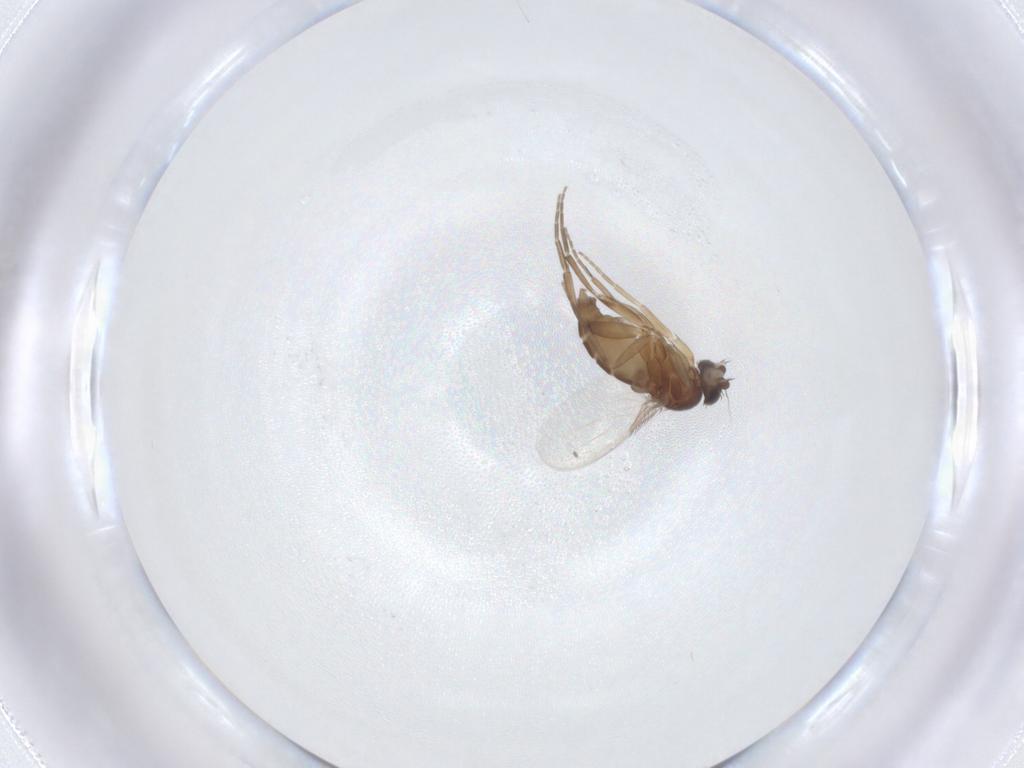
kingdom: Animalia
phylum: Arthropoda
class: Insecta
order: Diptera
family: Phoridae
